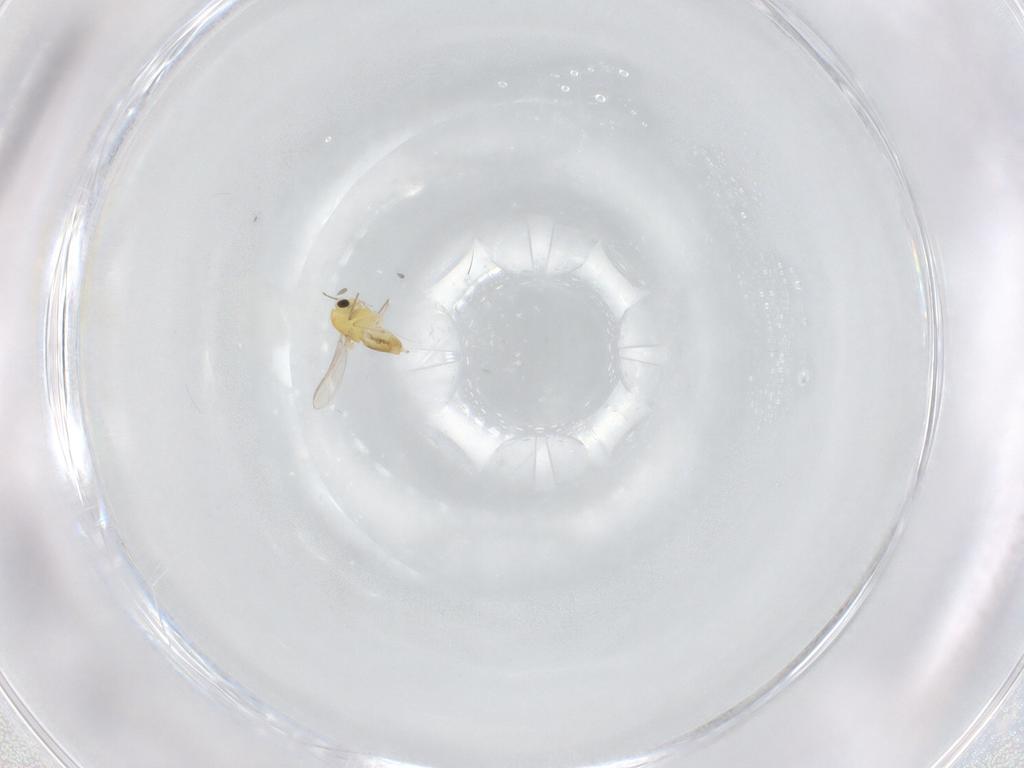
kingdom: Animalia
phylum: Arthropoda
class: Insecta
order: Diptera
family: Chironomidae
